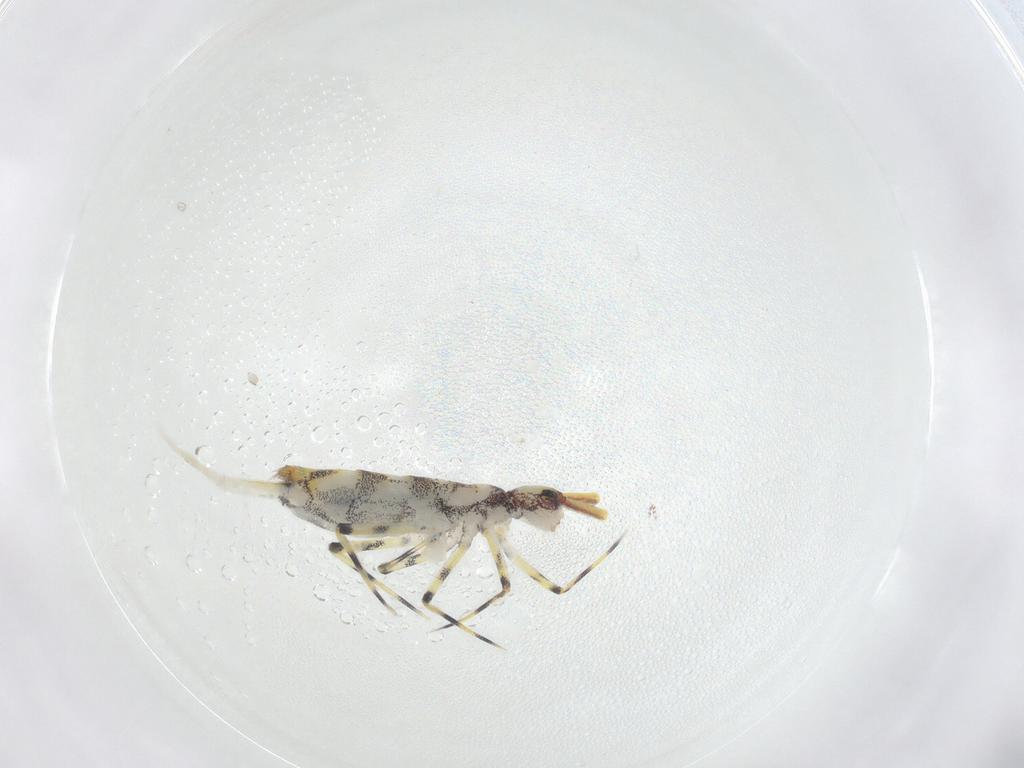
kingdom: Animalia
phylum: Arthropoda
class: Collembola
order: Entomobryomorpha
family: Entomobryidae
